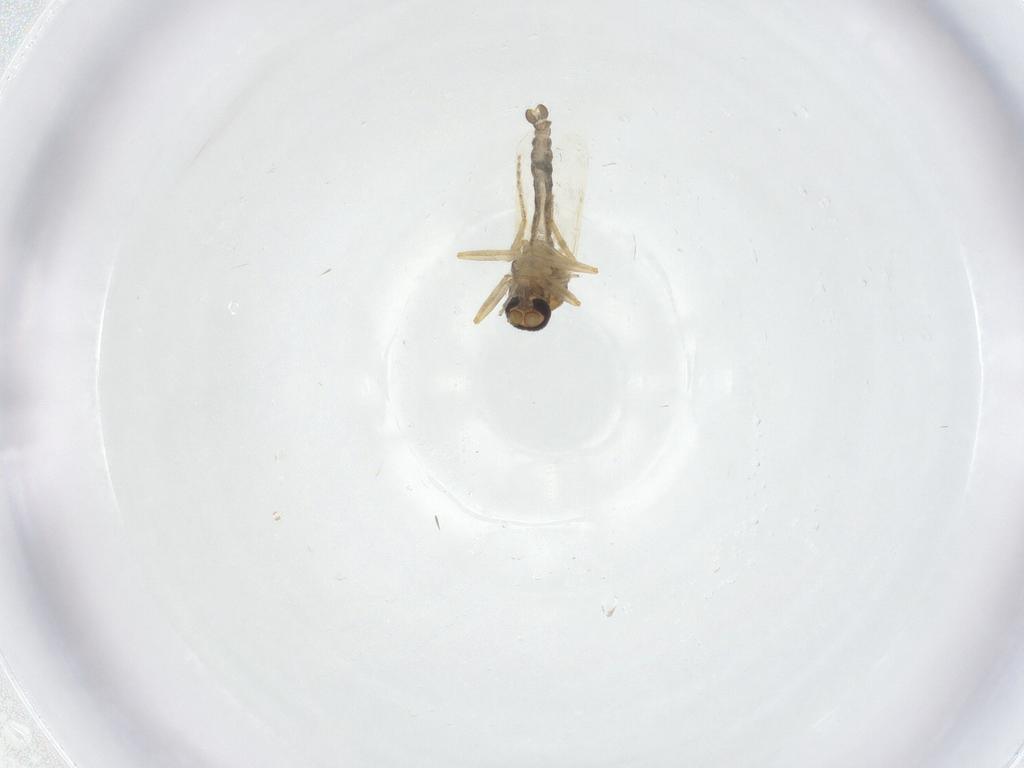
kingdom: Animalia
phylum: Arthropoda
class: Insecta
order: Diptera
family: Ceratopogonidae
